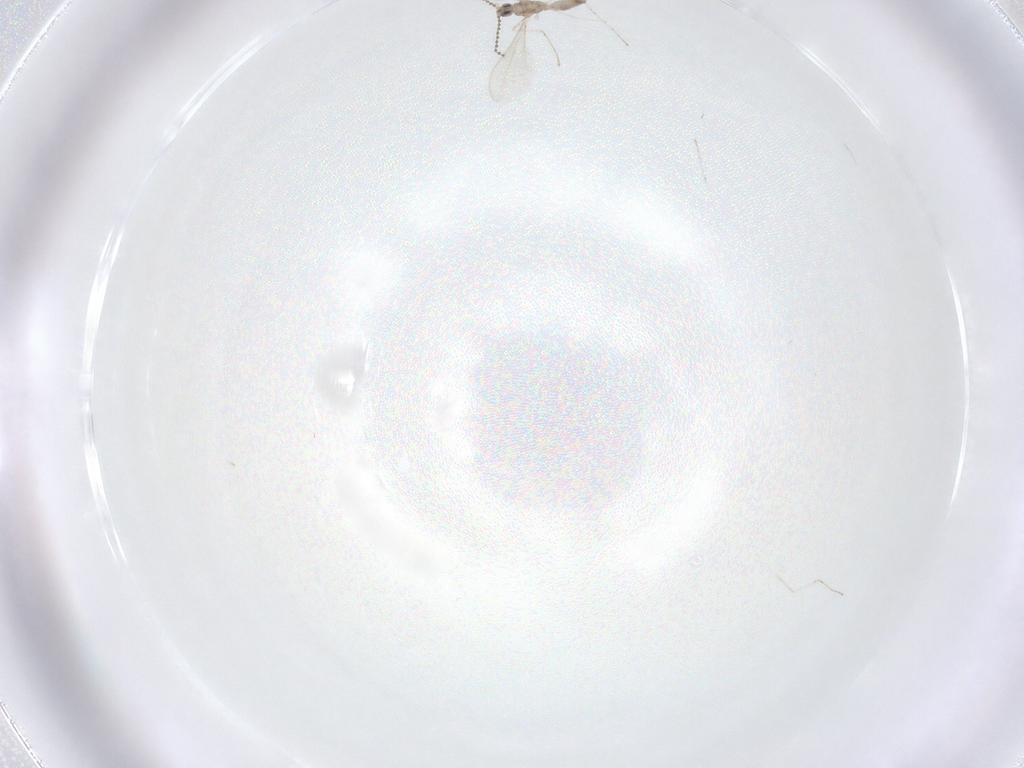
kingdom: Animalia
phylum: Arthropoda
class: Insecta
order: Diptera
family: Cecidomyiidae
